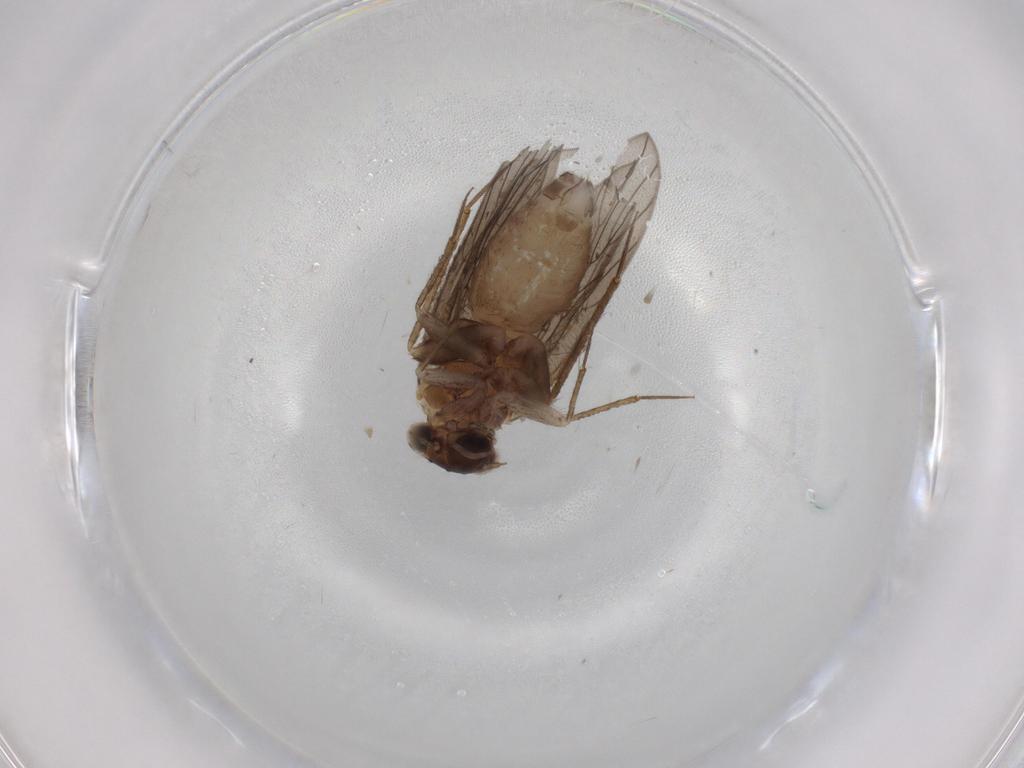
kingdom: Animalia
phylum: Arthropoda
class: Insecta
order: Psocodea
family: Lepidopsocidae
